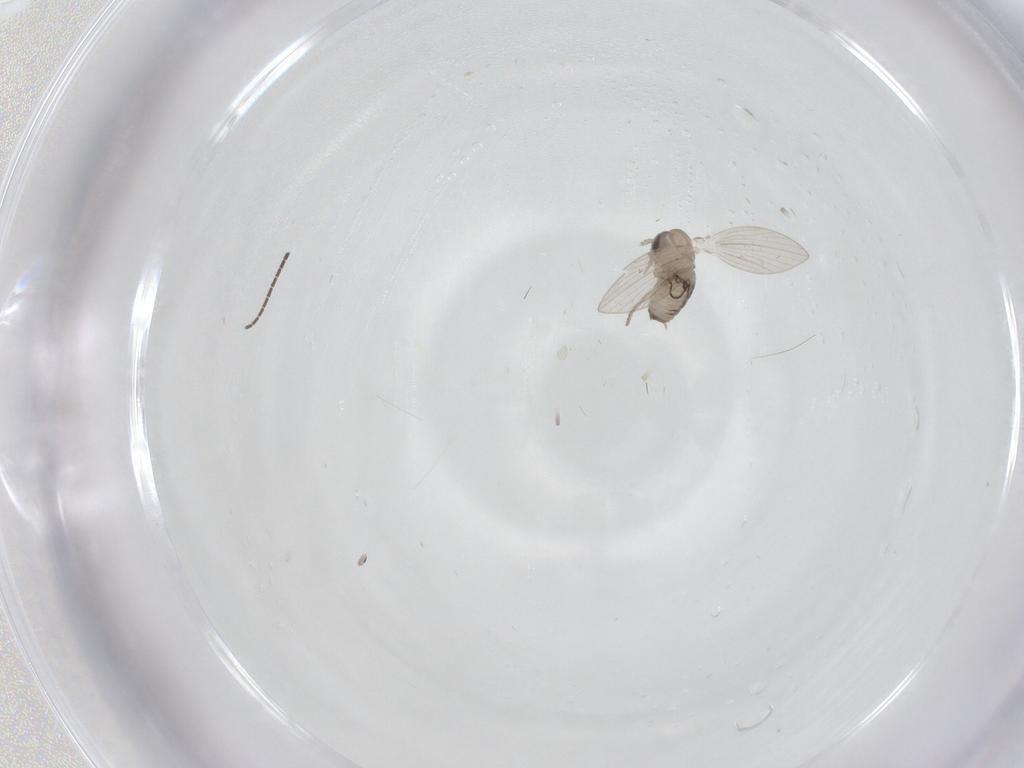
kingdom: Animalia
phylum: Arthropoda
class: Insecta
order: Diptera
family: Psychodidae
